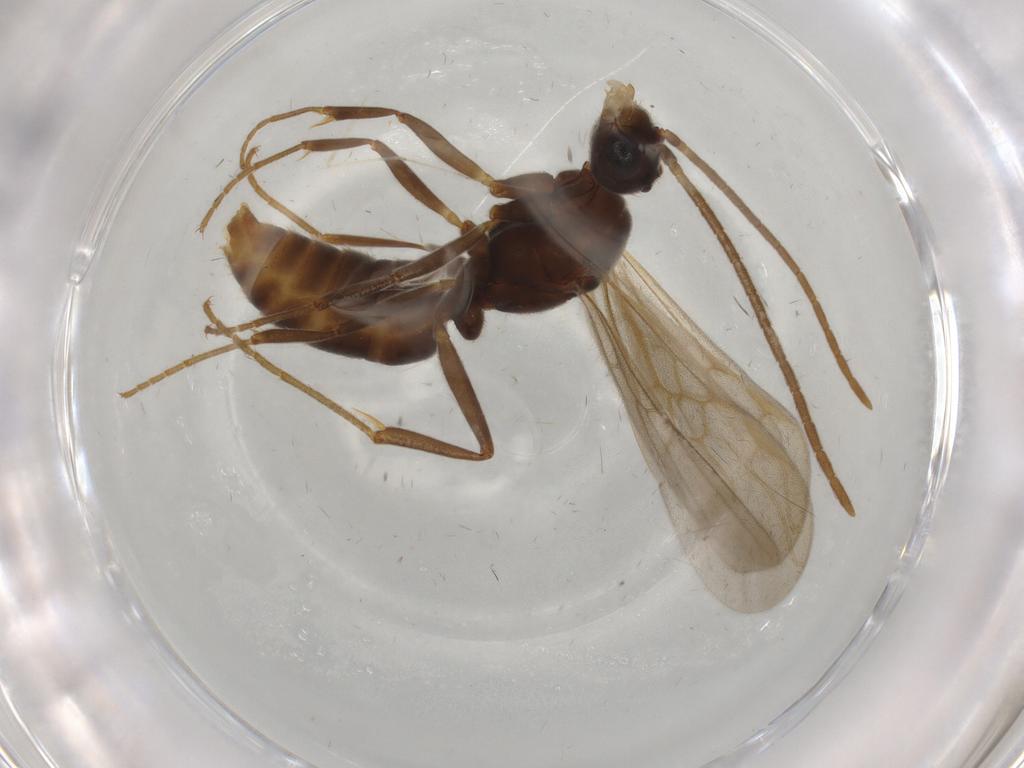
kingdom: Animalia
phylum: Arthropoda
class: Insecta
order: Hymenoptera
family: Formicidae
